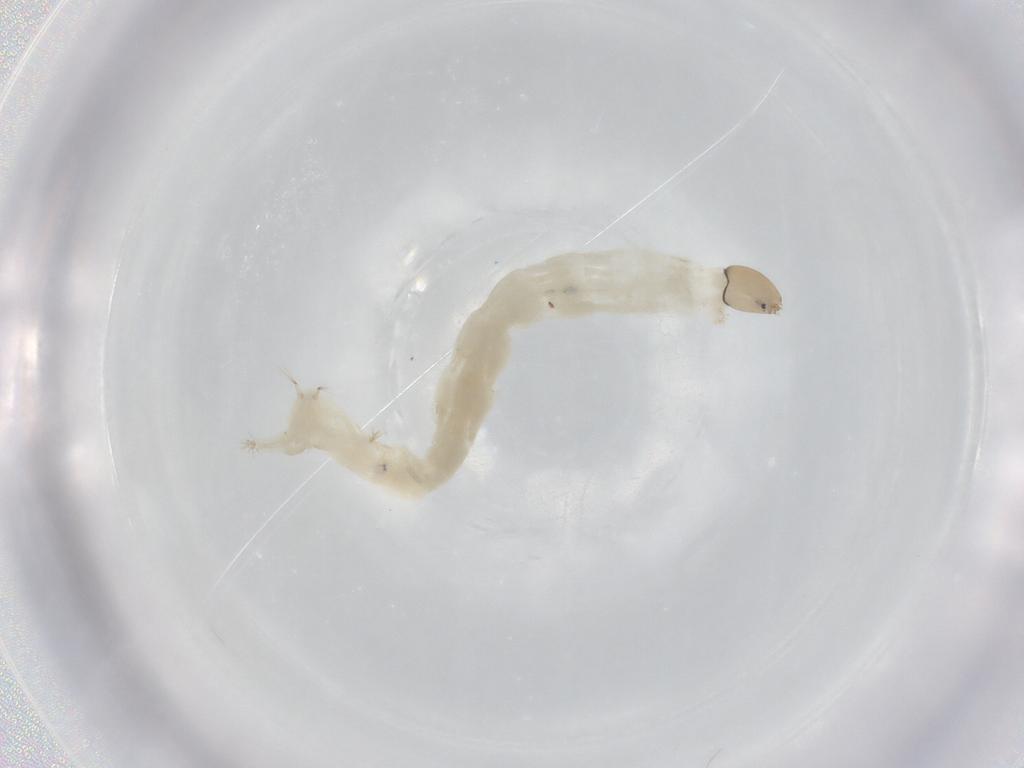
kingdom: Animalia
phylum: Arthropoda
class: Insecta
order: Diptera
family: Chironomidae
